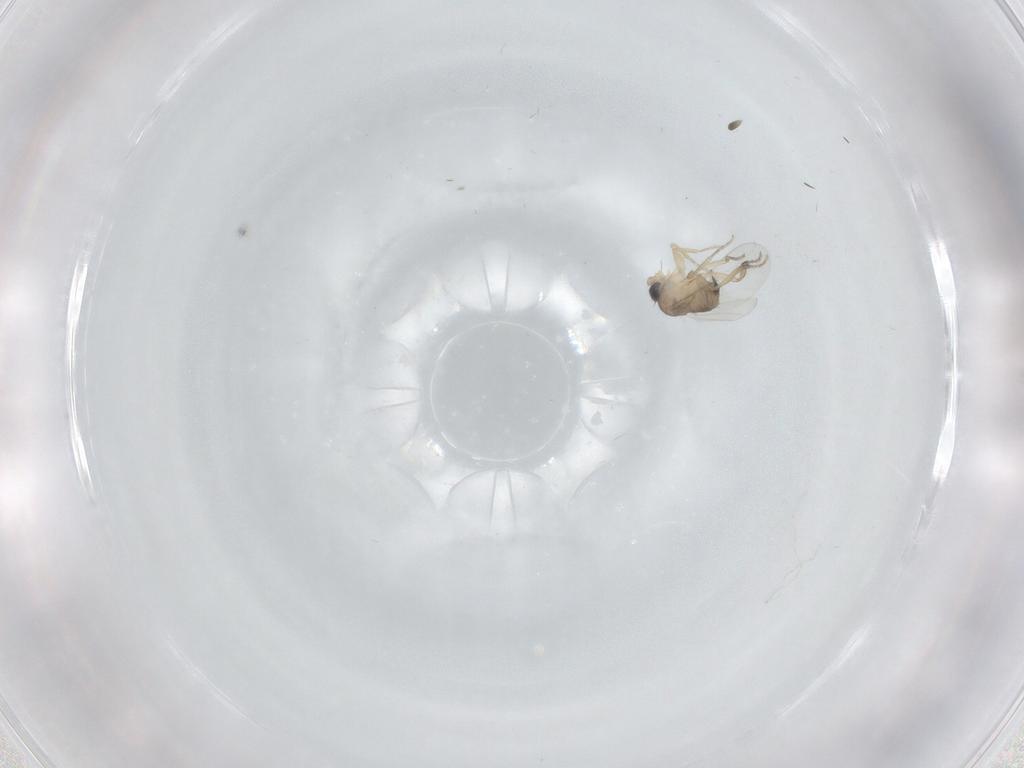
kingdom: Animalia
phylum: Arthropoda
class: Insecta
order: Diptera
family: Phoridae
